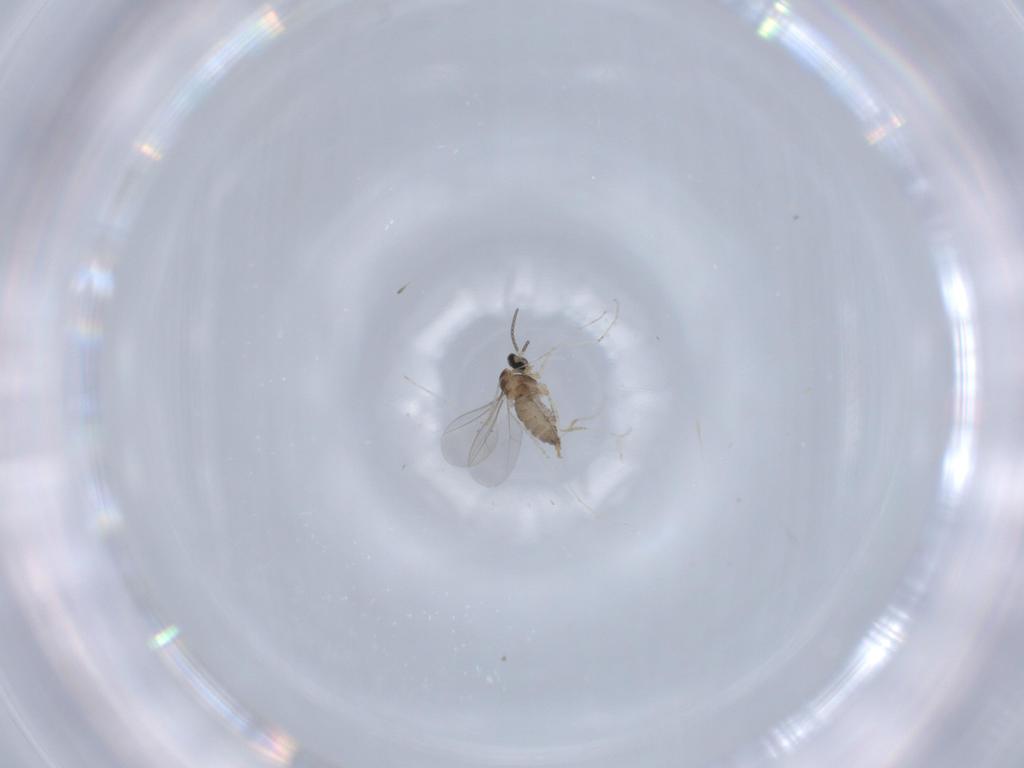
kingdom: Animalia
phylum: Arthropoda
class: Insecta
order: Diptera
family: Cecidomyiidae
